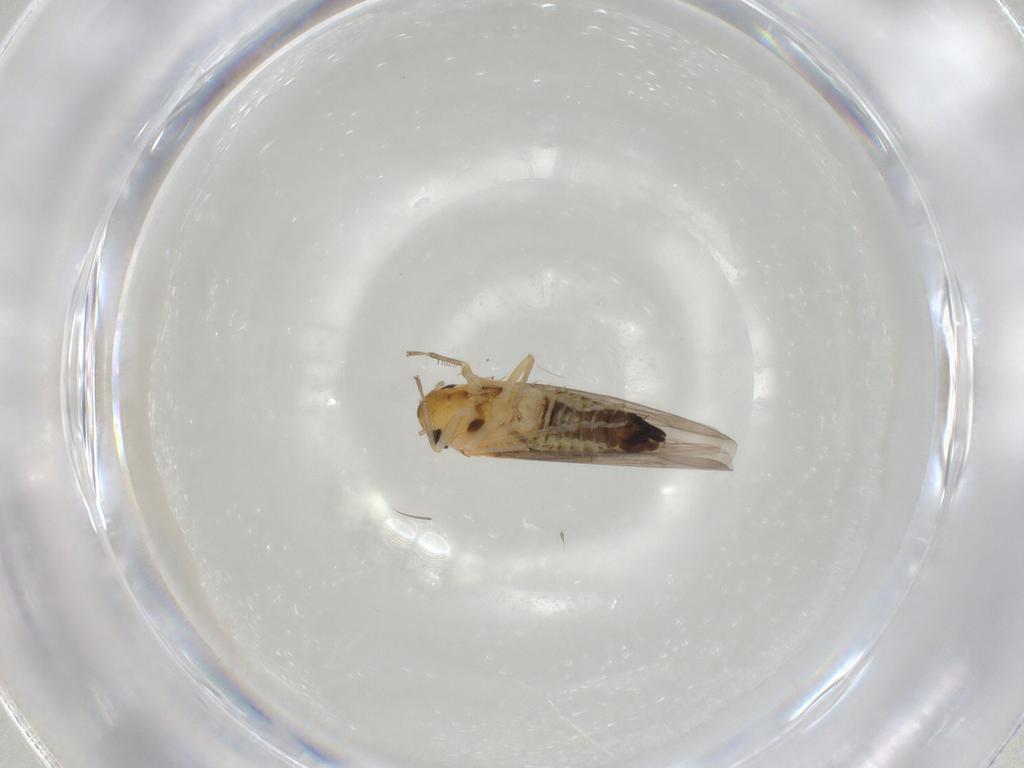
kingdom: Animalia
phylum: Arthropoda
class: Insecta
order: Hemiptera
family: Cicadellidae
